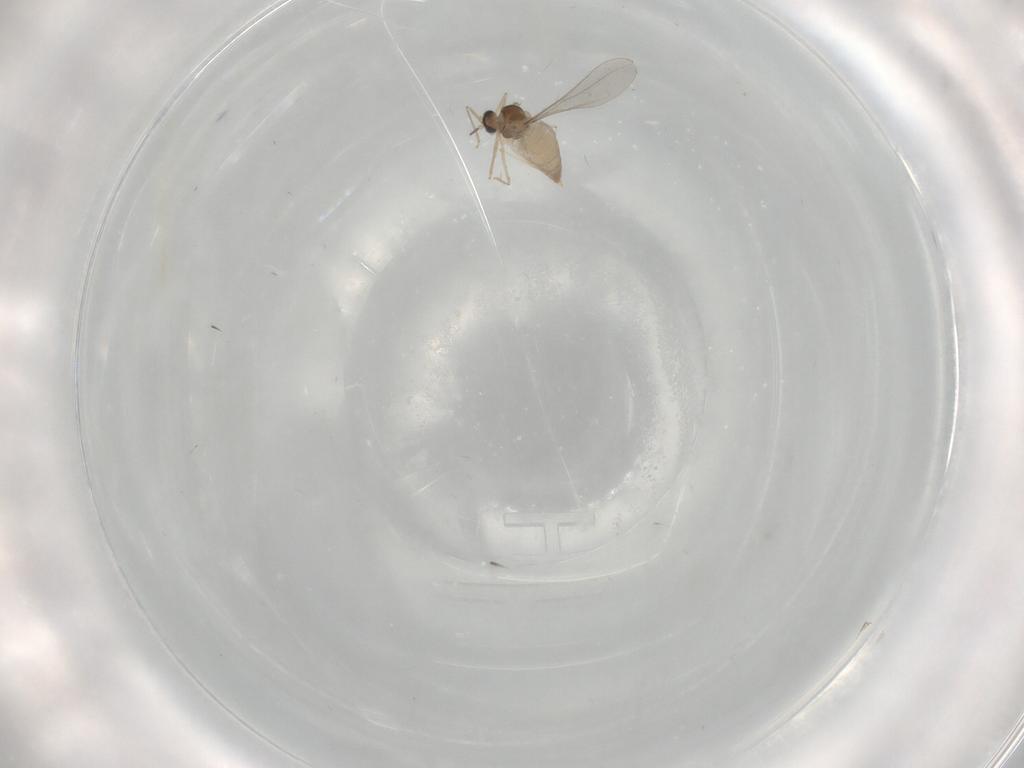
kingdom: Animalia
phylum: Arthropoda
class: Insecta
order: Diptera
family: Cecidomyiidae
